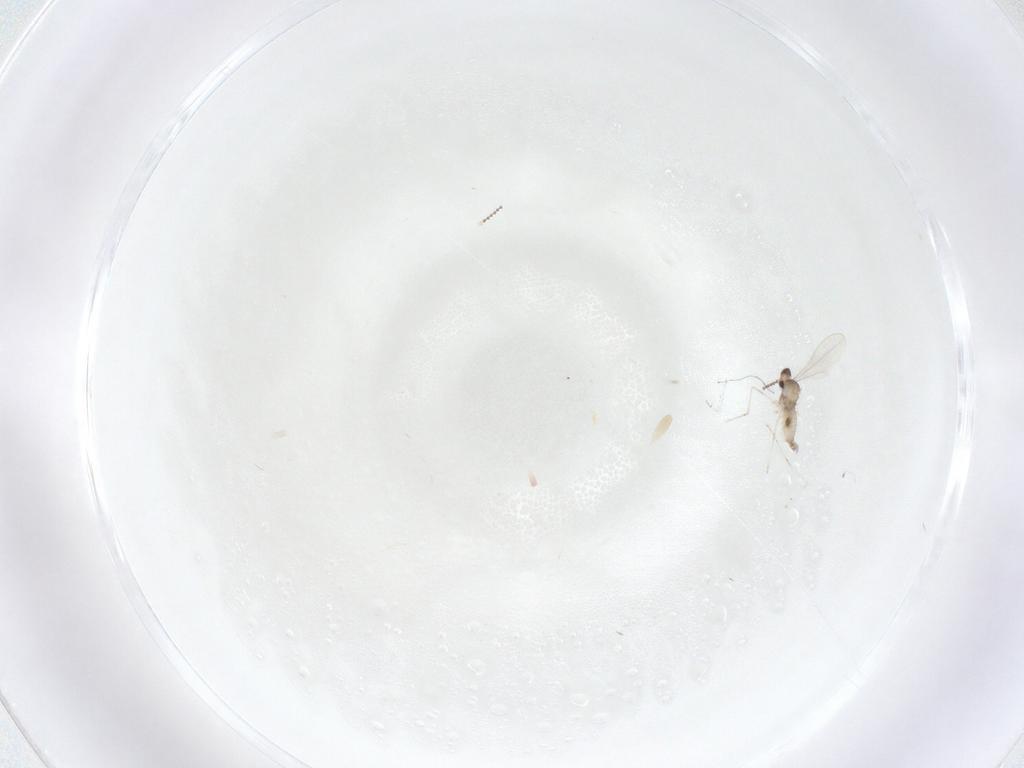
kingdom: Animalia
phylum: Arthropoda
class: Insecta
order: Diptera
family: Cecidomyiidae
